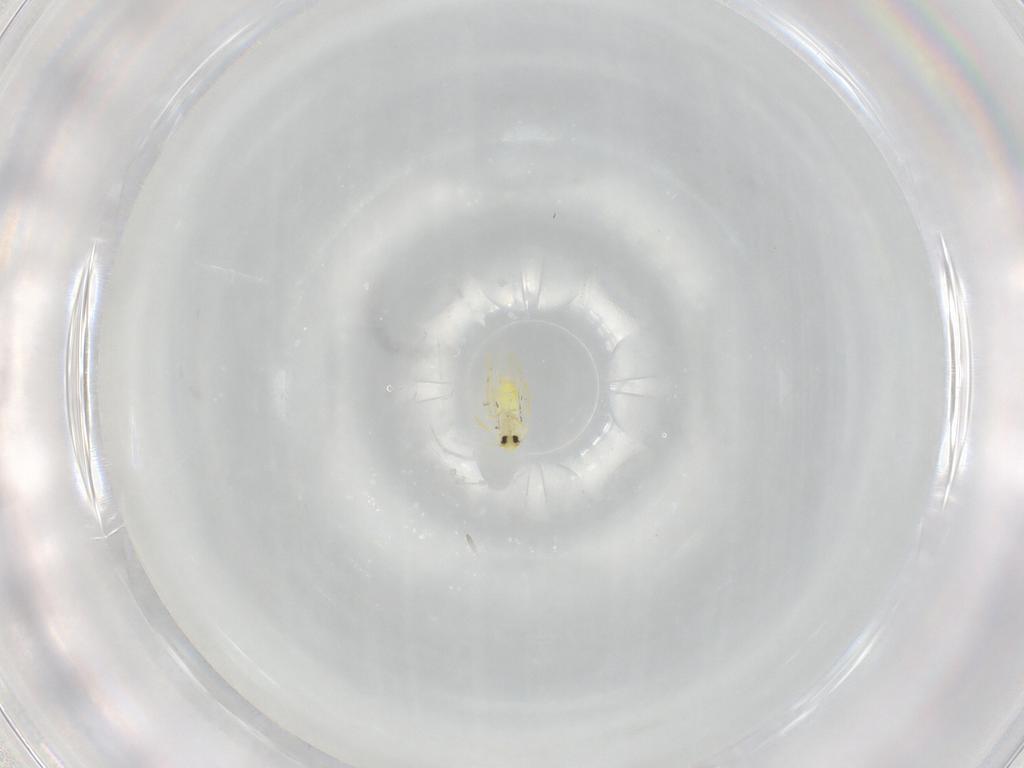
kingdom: Animalia
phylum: Arthropoda
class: Insecta
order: Hemiptera
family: Aleyrodidae
